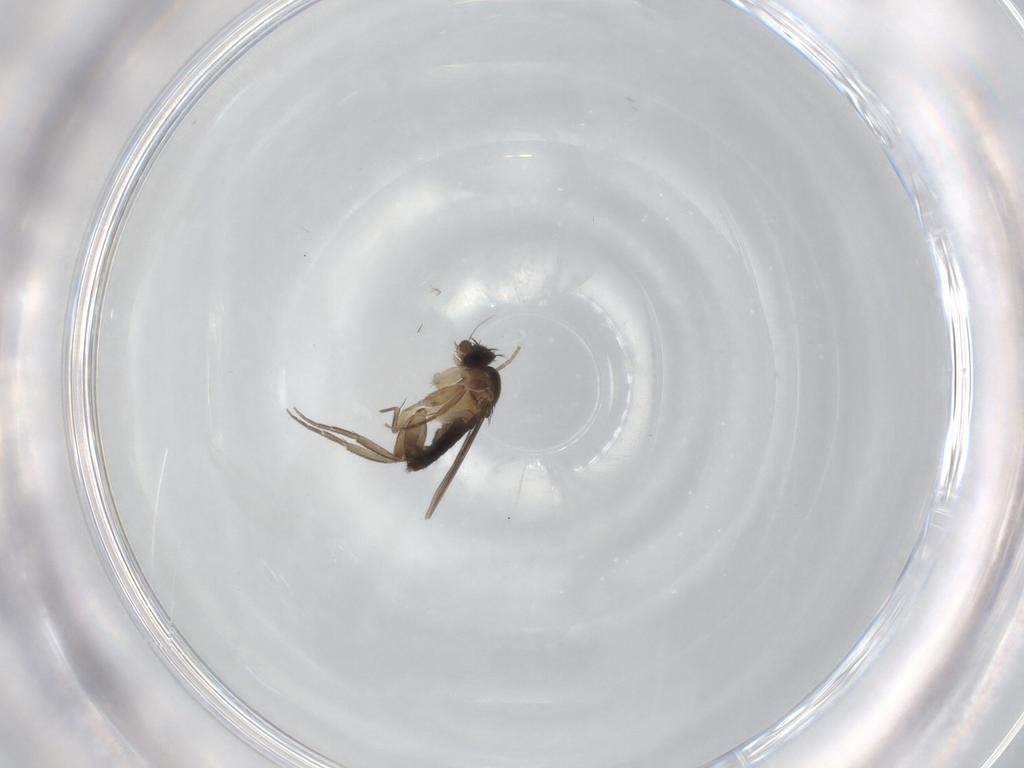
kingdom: Animalia
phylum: Arthropoda
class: Insecta
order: Diptera
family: Phoridae
